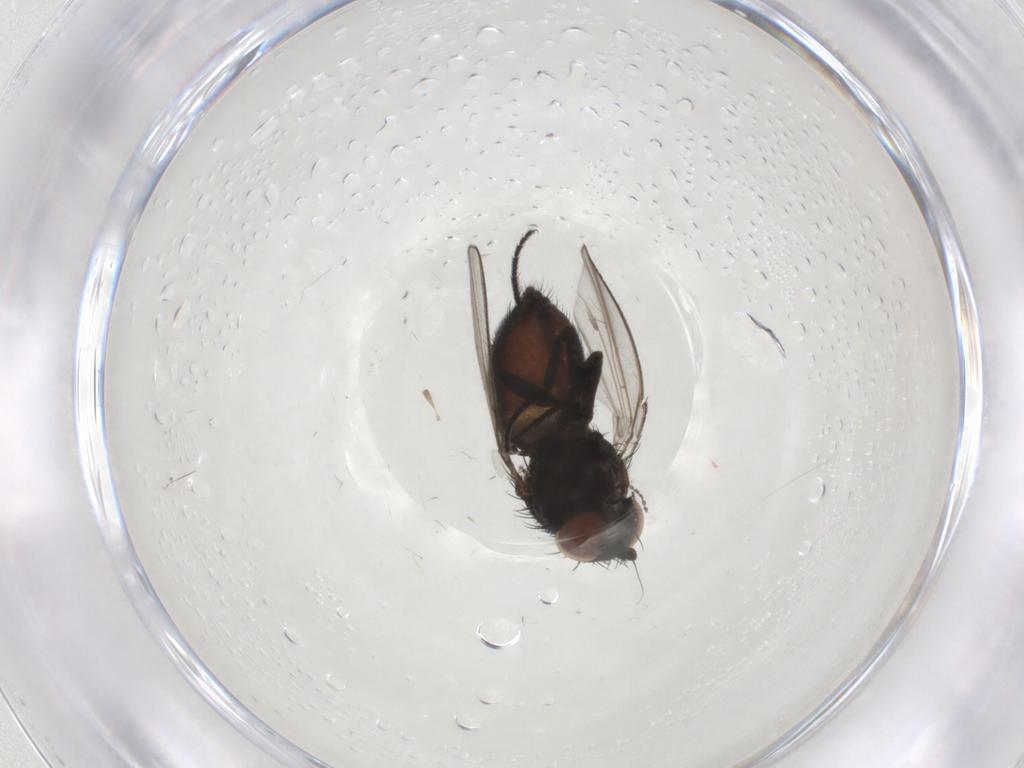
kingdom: Animalia
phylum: Arthropoda
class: Insecta
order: Diptera
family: Milichiidae
